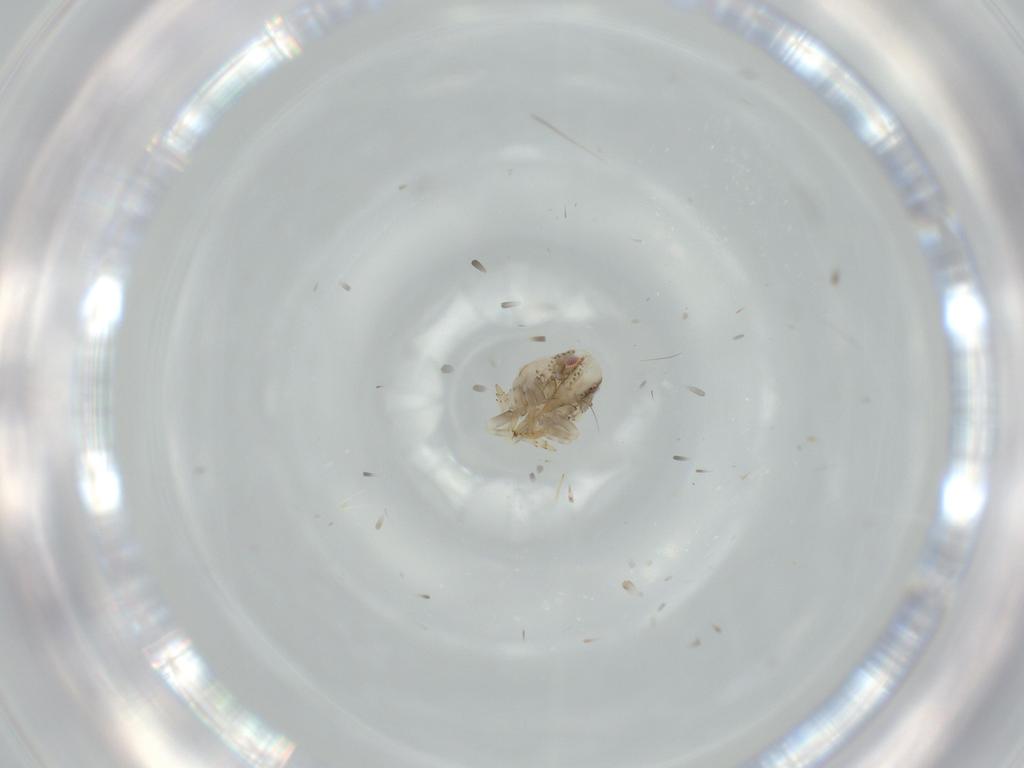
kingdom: Animalia
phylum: Arthropoda
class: Insecta
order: Hemiptera
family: Acanaloniidae
